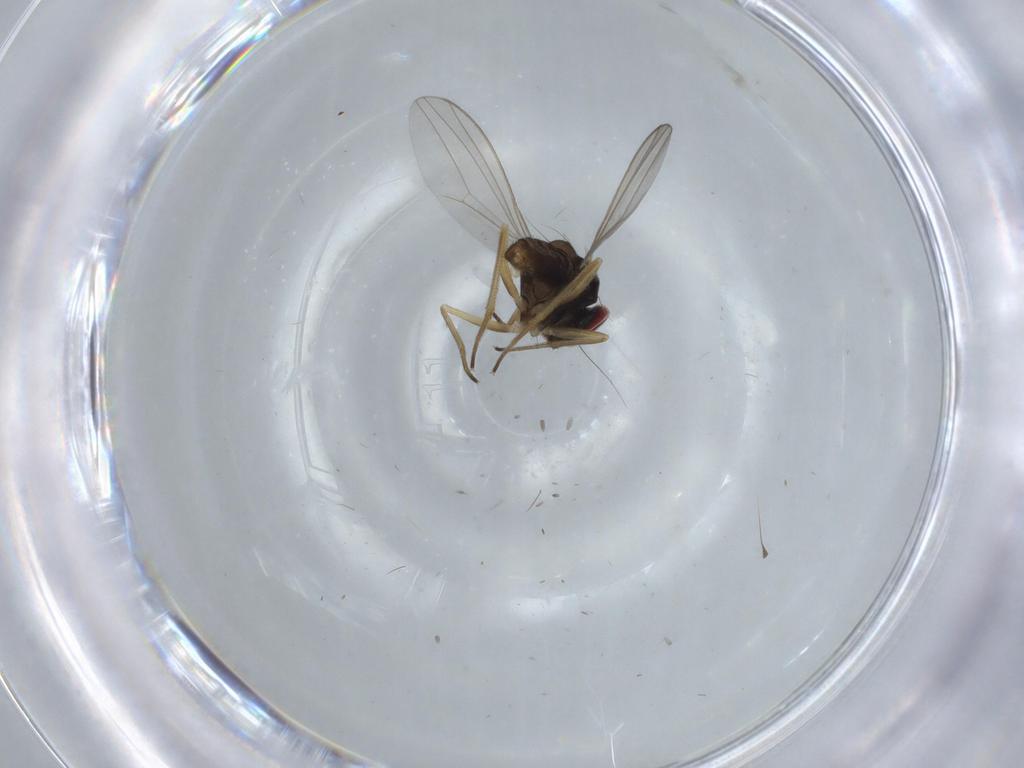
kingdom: Animalia
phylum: Arthropoda
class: Insecta
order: Diptera
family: Dolichopodidae
